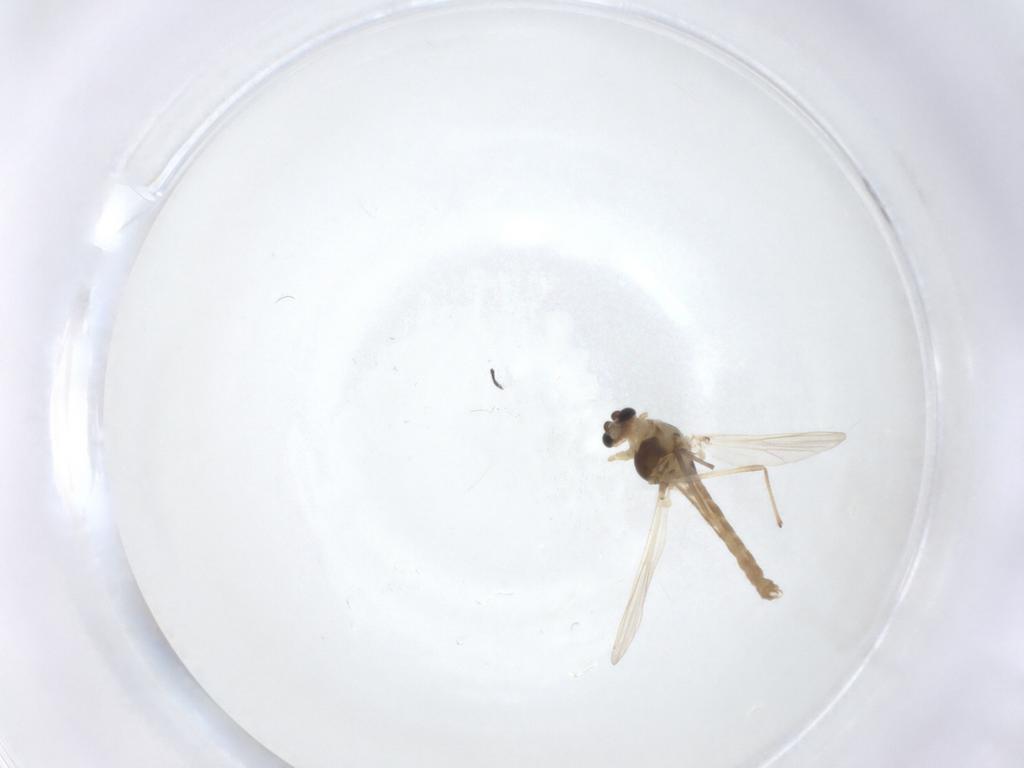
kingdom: Animalia
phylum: Arthropoda
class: Insecta
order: Diptera
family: Chironomidae
